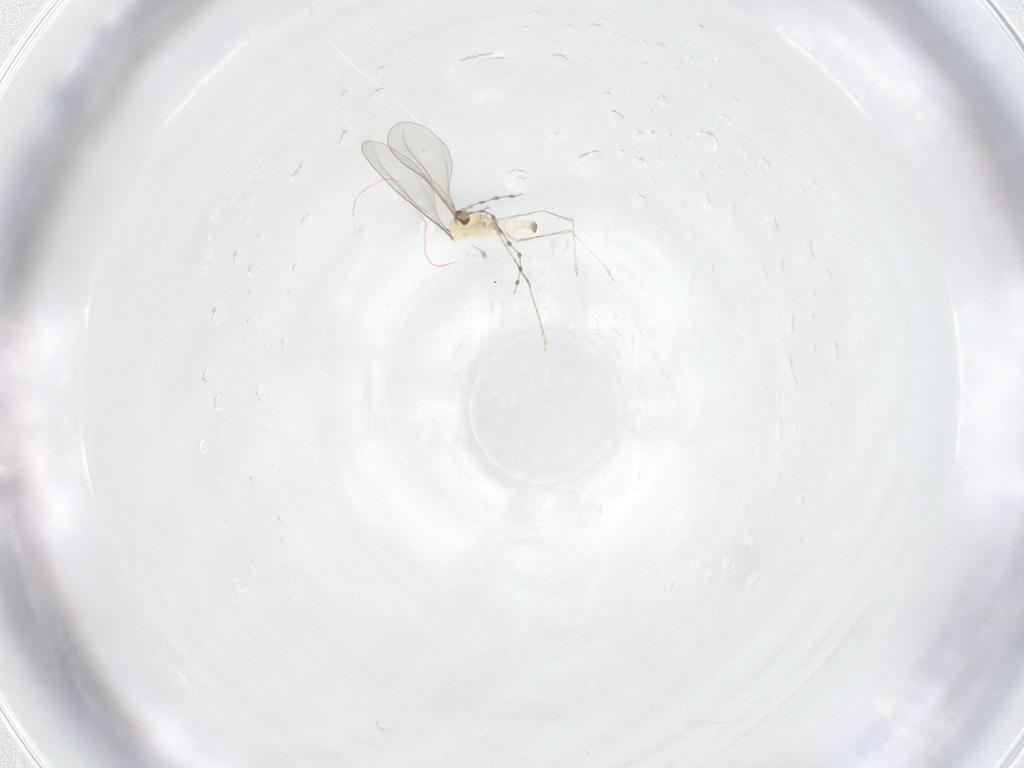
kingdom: Animalia
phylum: Arthropoda
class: Insecta
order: Diptera
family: Cecidomyiidae
